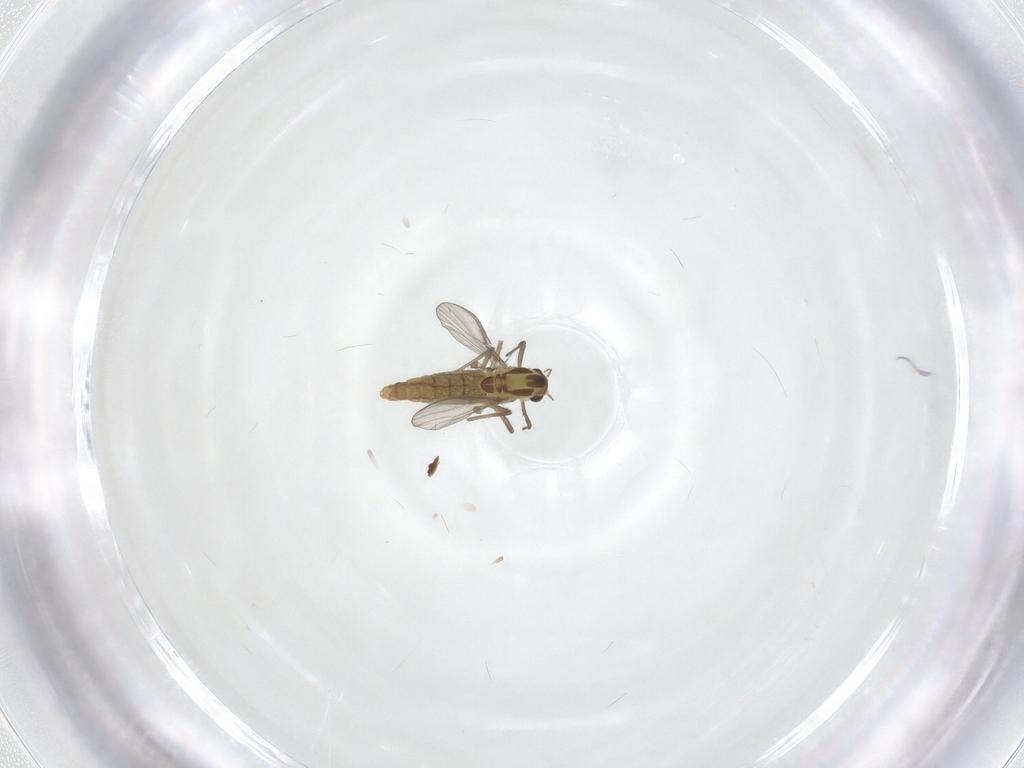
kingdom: Animalia
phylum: Arthropoda
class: Insecta
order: Diptera
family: Chironomidae
